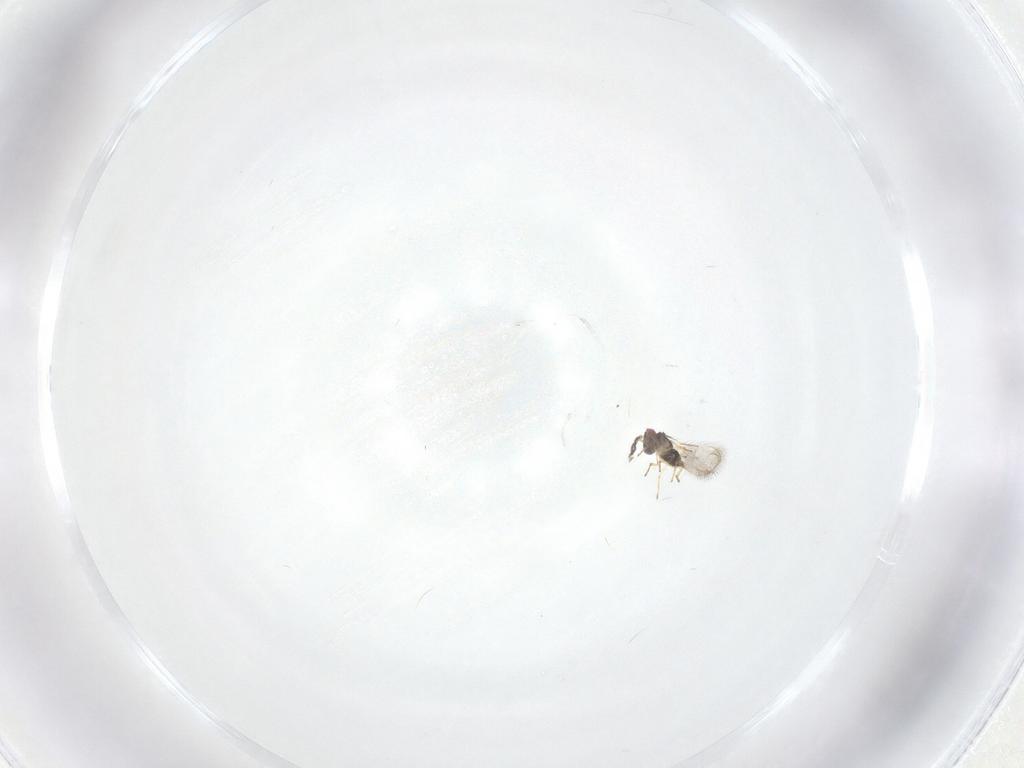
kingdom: Animalia
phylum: Arthropoda
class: Insecta
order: Hymenoptera
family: Eulophidae
